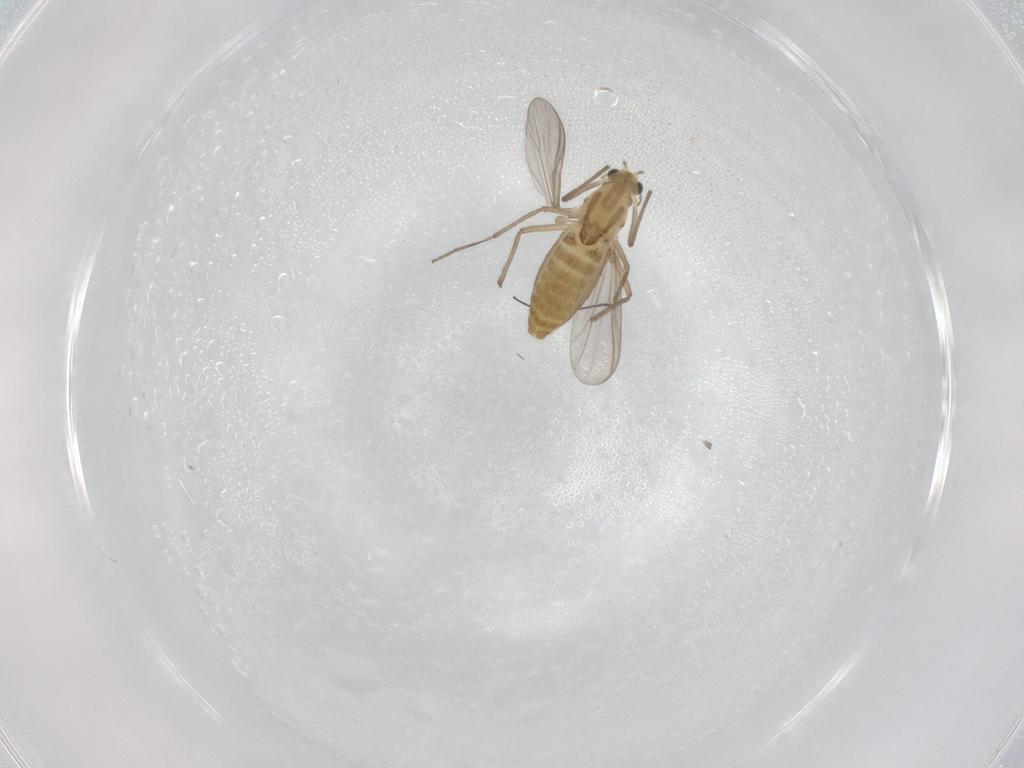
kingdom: Animalia
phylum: Arthropoda
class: Insecta
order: Diptera
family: Chironomidae
